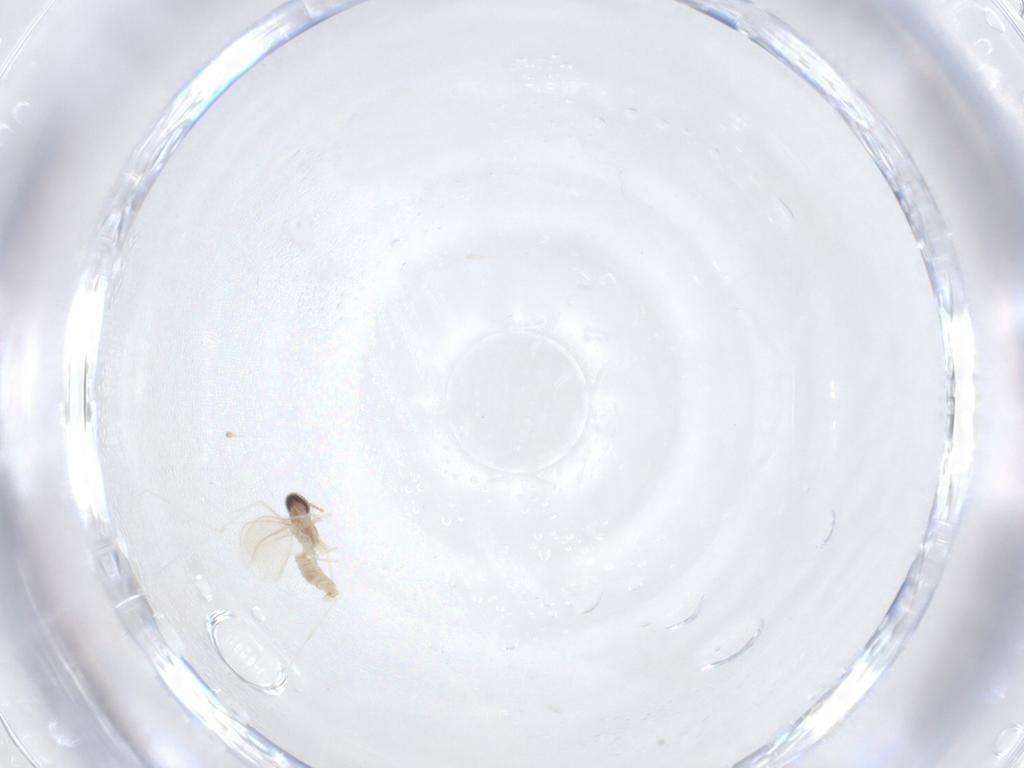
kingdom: Animalia
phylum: Arthropoda
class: Insecta
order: Diptera
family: Cecidomyiidae
